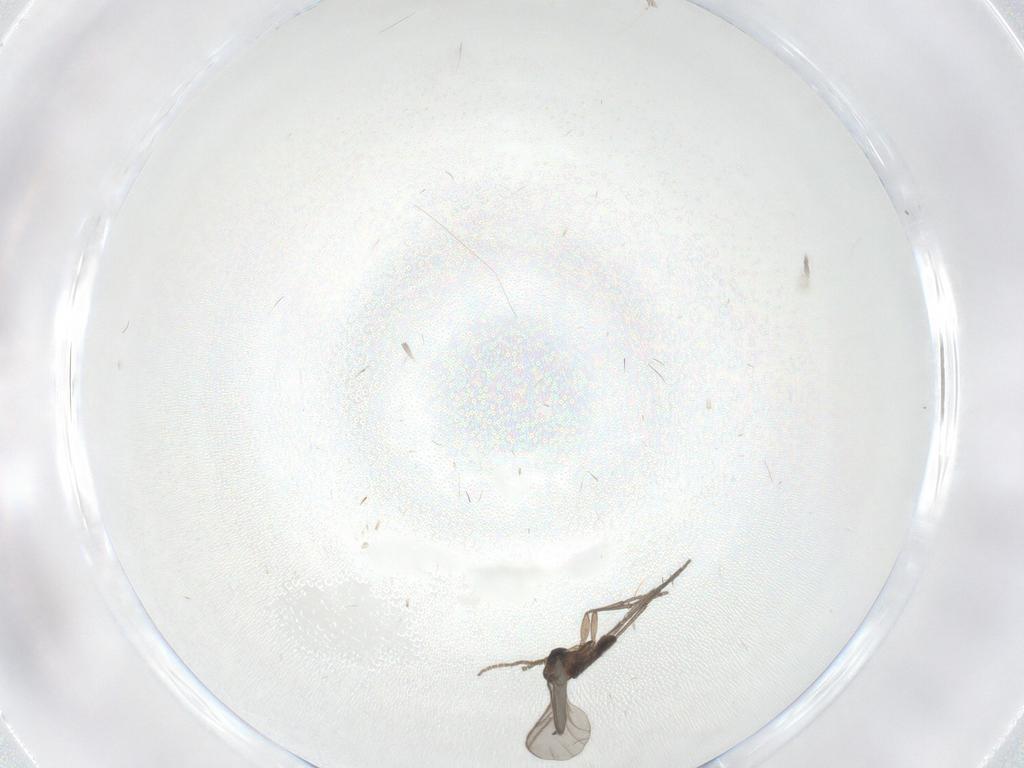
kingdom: Animalia
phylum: Arthropoda
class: Insecta
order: Diptera
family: Sciaridae
